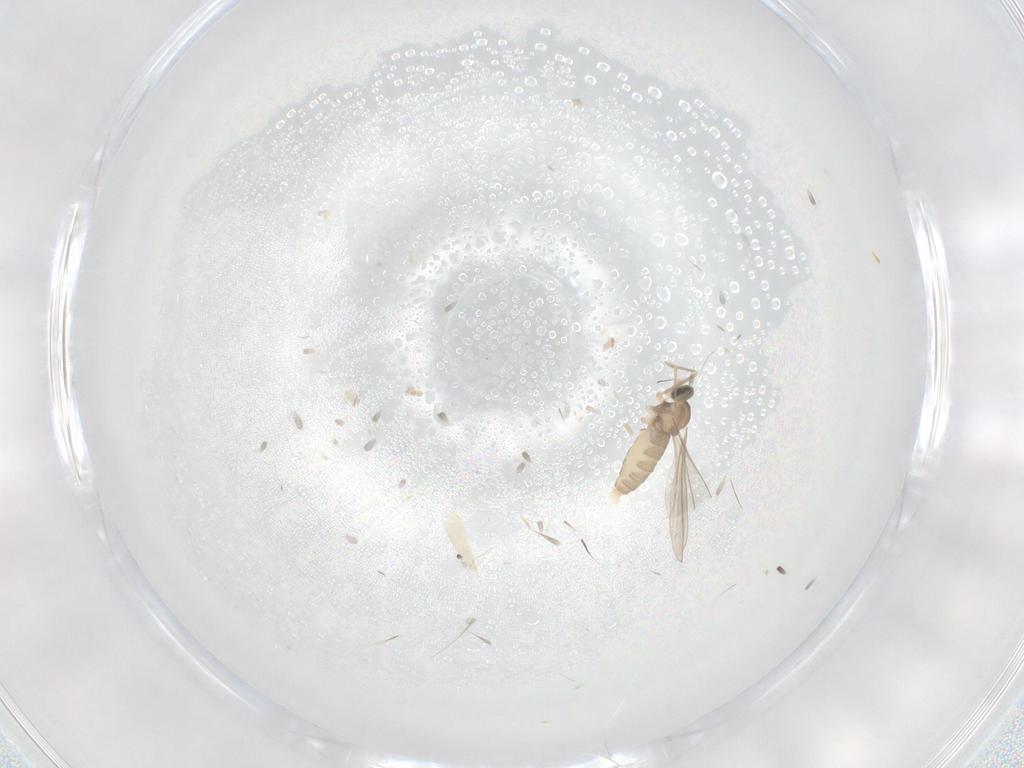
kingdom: Animalia
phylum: Arthropoda
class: Insecta
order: Diptera
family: Cecidomyiidae
